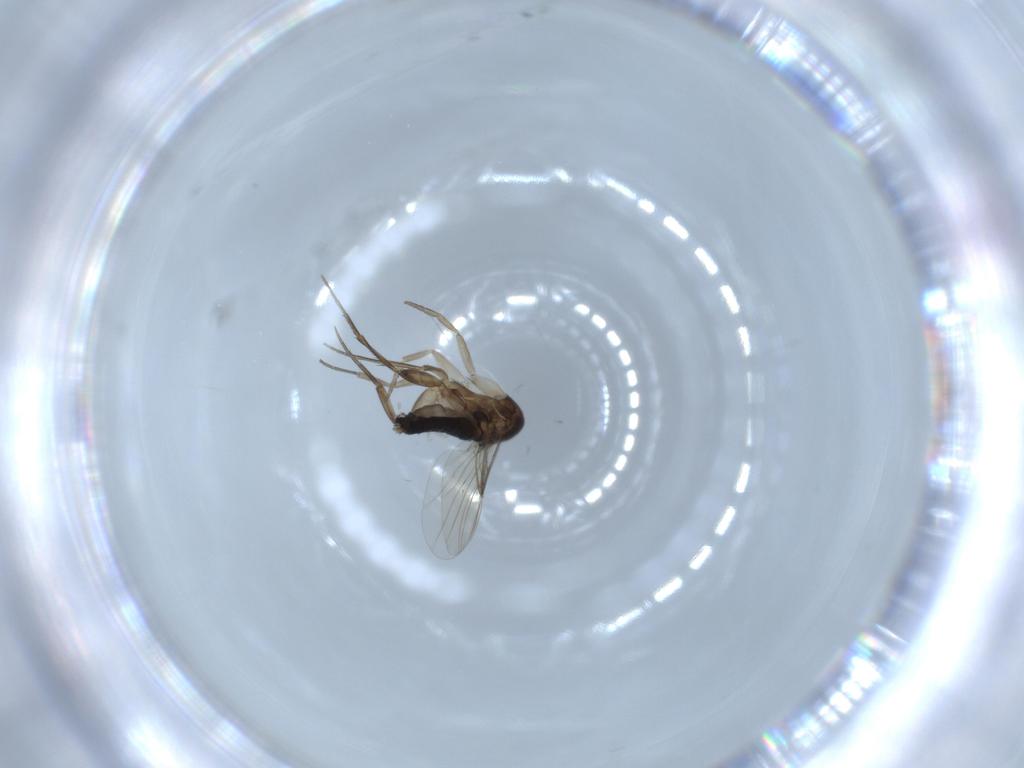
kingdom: Animalia
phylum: Arthropoda
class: Insecta
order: Diptera
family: Phoridae
